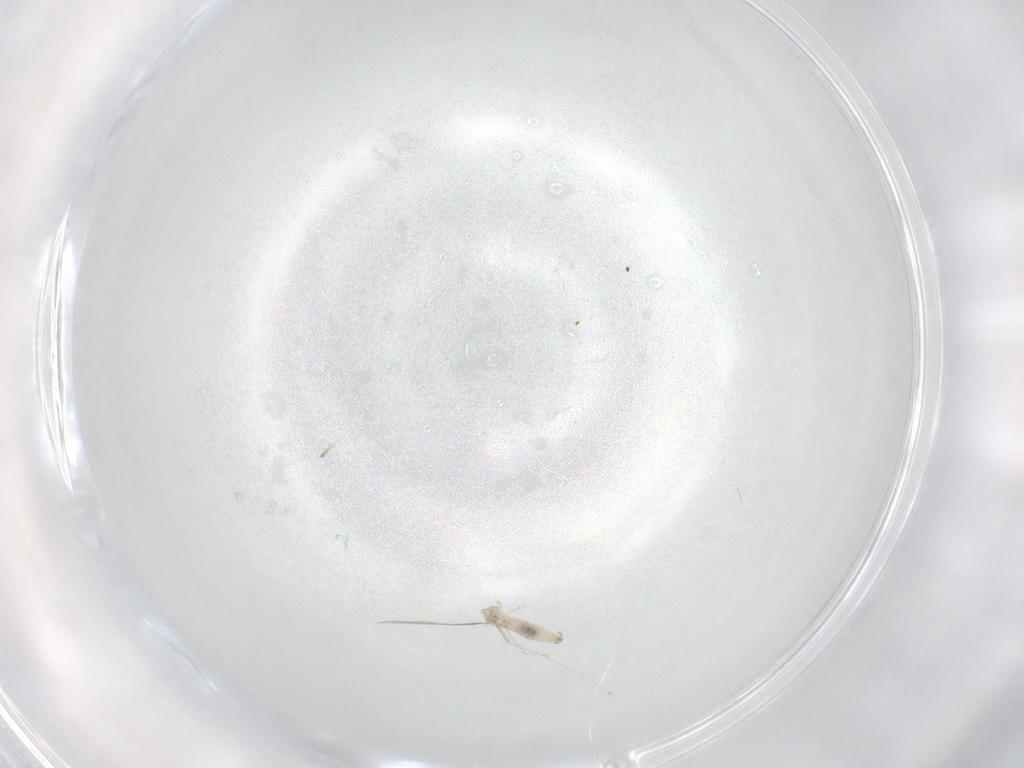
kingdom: Animalia
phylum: Arthropoda
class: Insecta
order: Diptera
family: Cecidomyiidae
